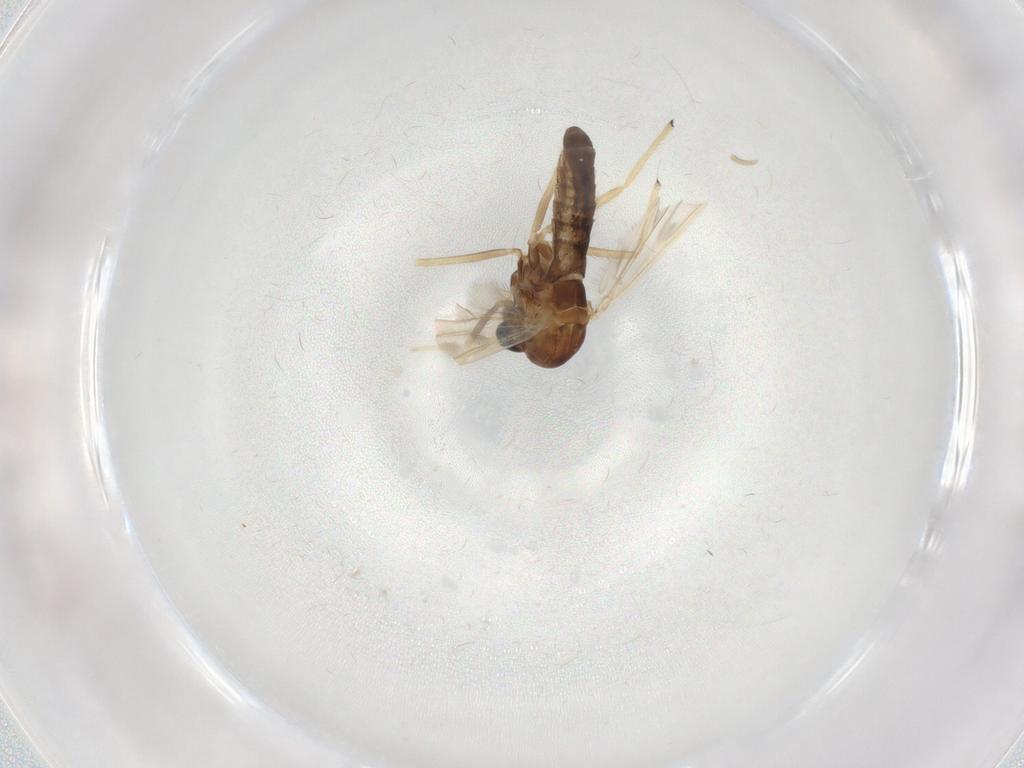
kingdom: Animalia
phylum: Arthropoda
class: Insecta
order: Diptera
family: Chironomidae
